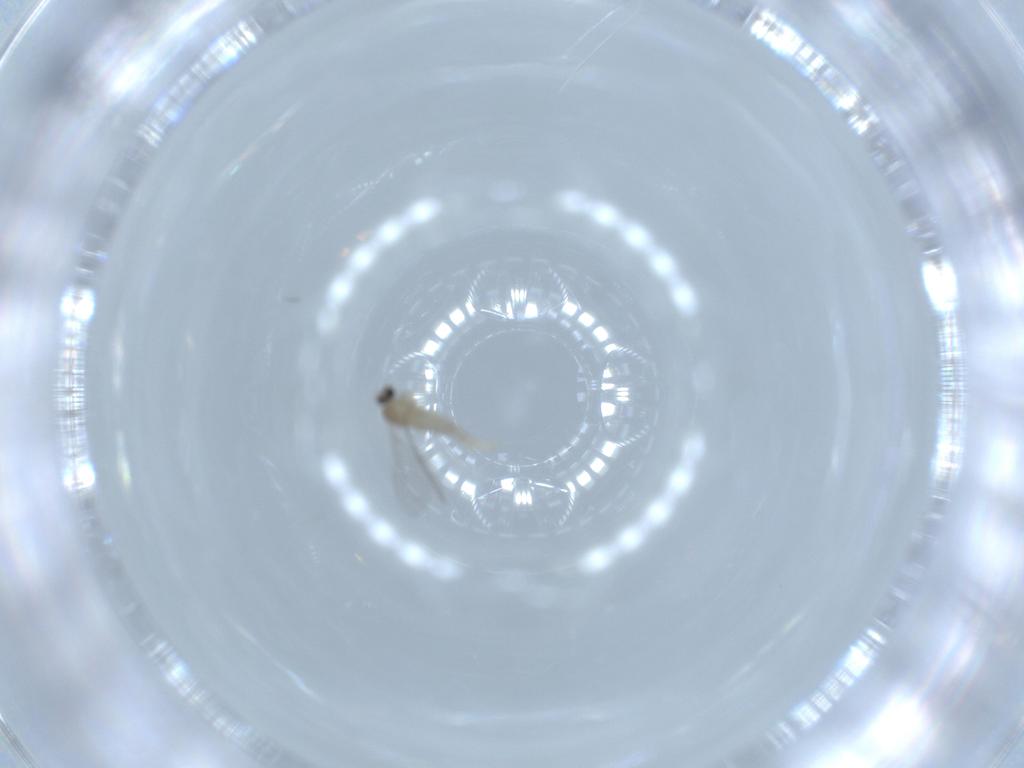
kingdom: Animalia
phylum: Arthropoda
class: Insecta
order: Diptera
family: Cecidomyiidae
